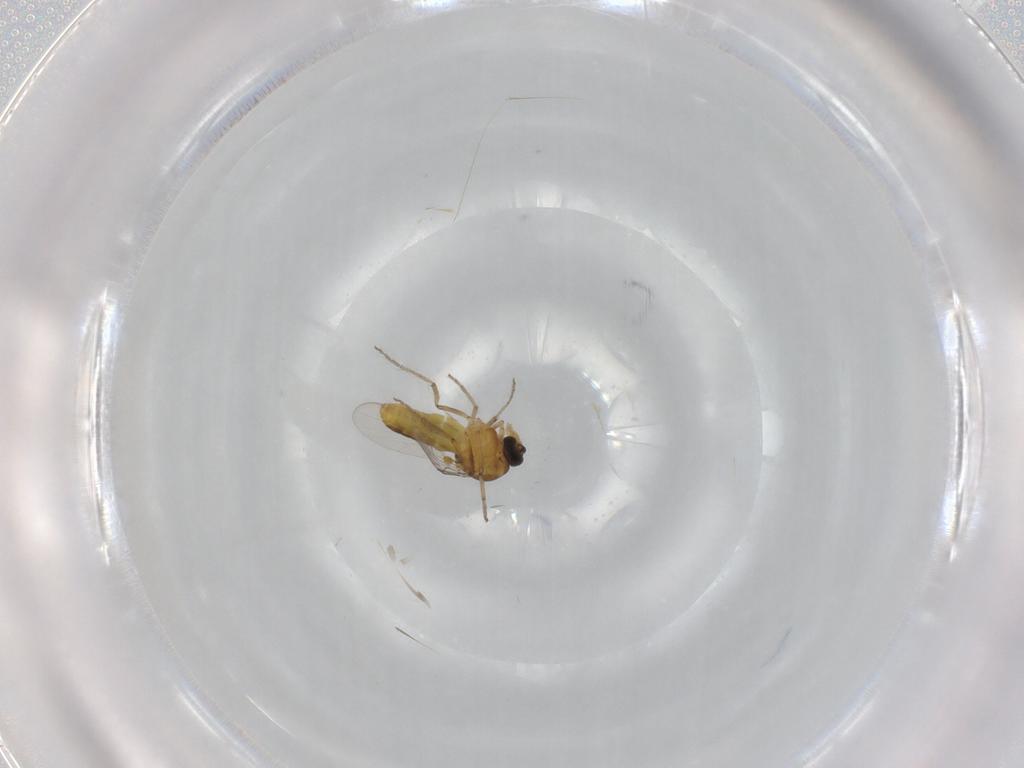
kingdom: Animalia
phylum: Arthropoda
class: Insecta
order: Diptera
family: Ceratopogonidae
